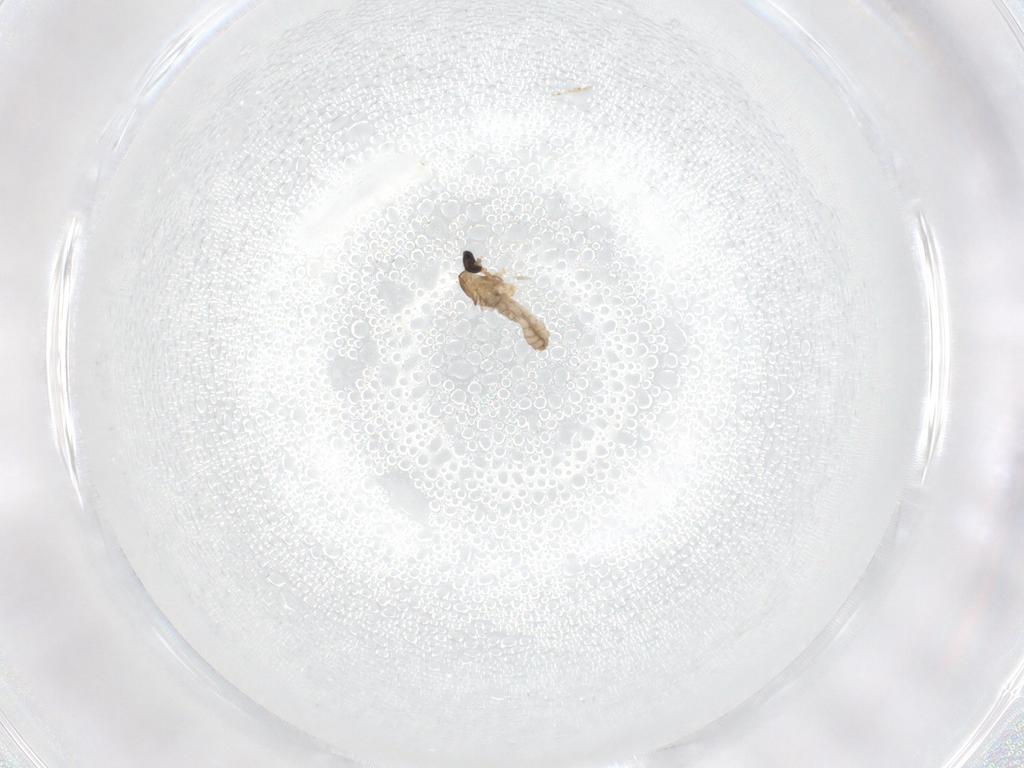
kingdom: Animalia
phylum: Arthropoda
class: Insecta
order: Diptera
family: Cecidomyiidae
